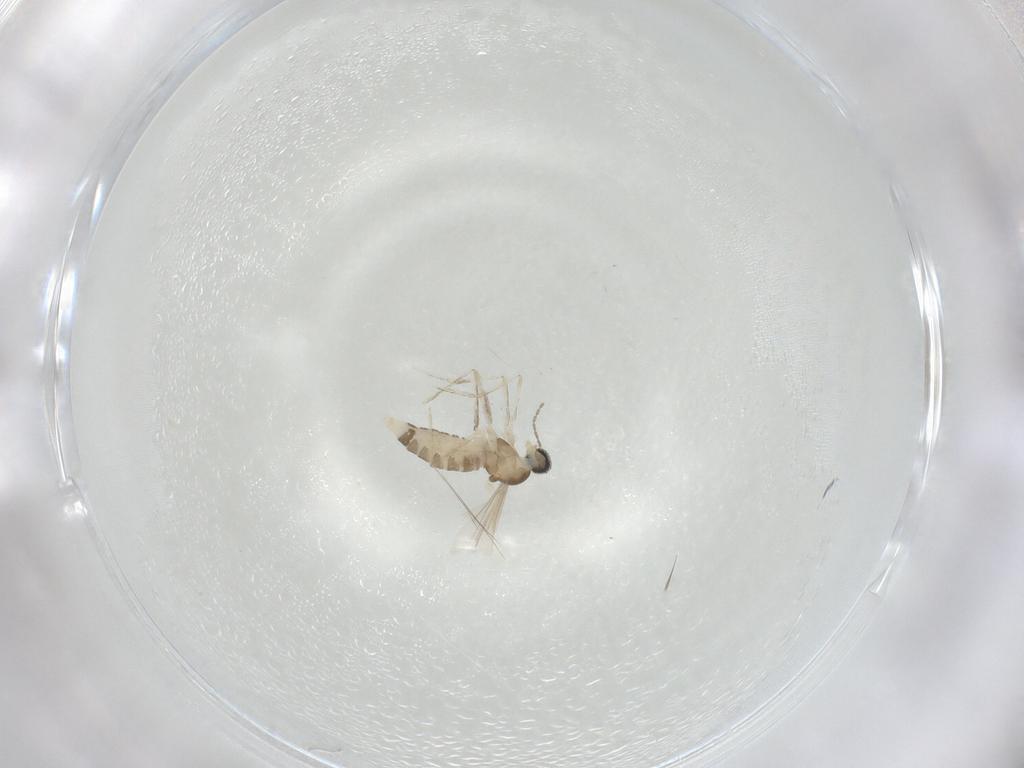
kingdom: Animalia
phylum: Arthropoda
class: Insecta
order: Diptera
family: Cecidomyiidae
